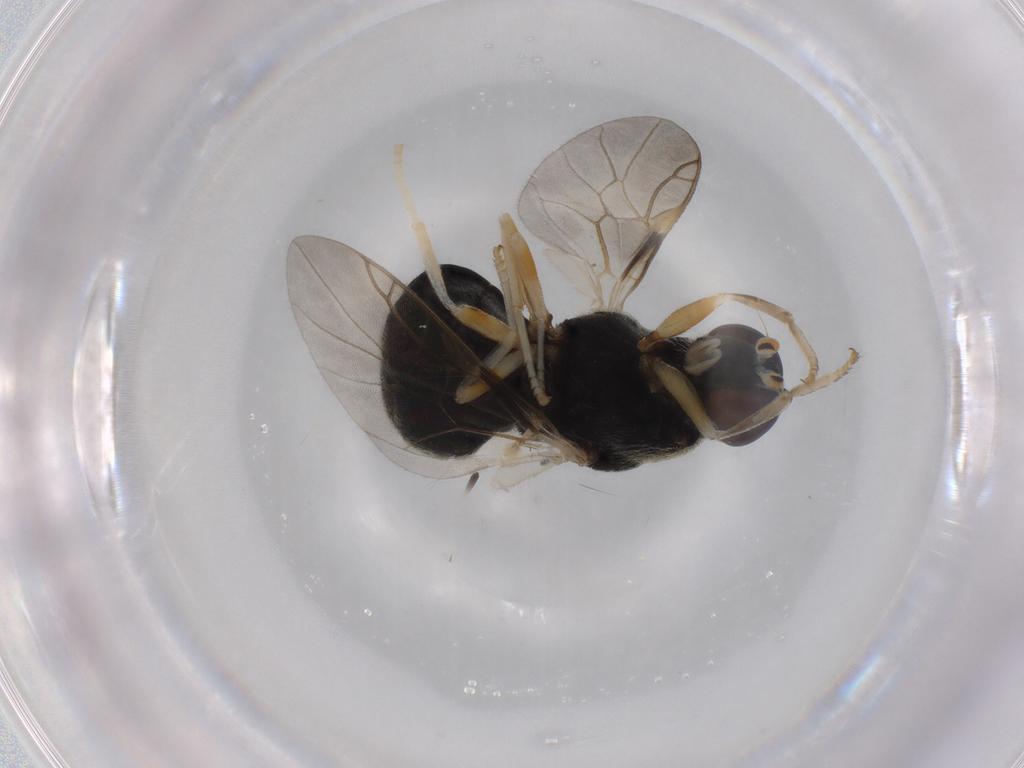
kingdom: Animalia
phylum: Arthropoda
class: Insecta
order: Diptera
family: Stratiomyidae
